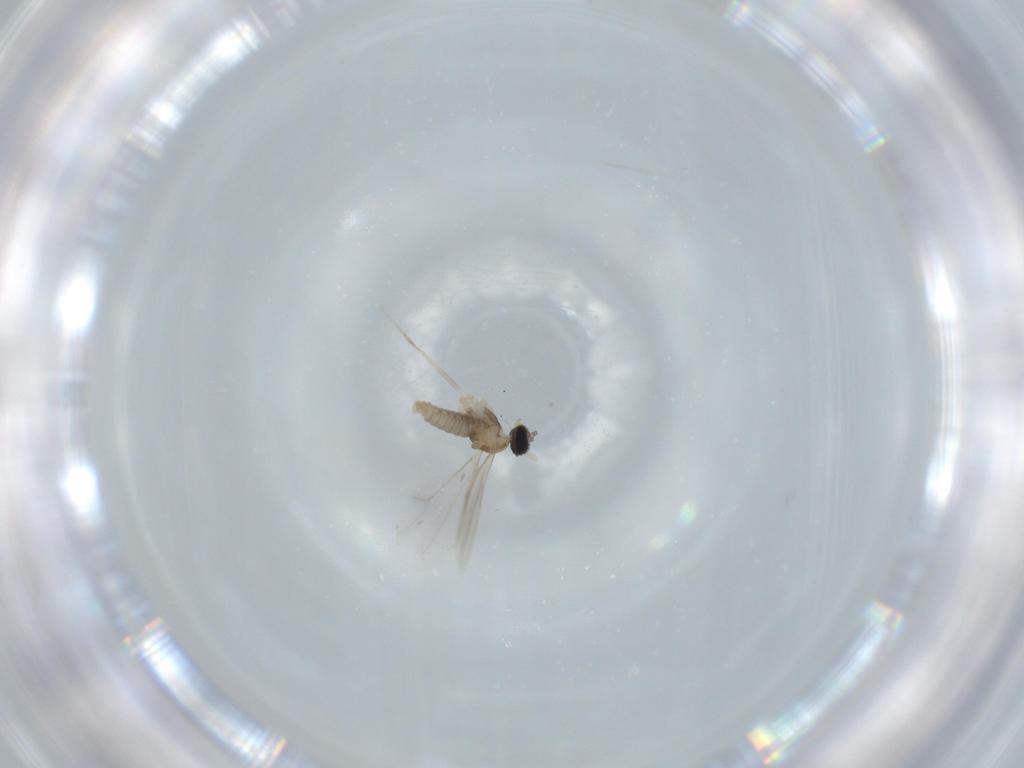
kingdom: Animalia
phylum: Arthropoda
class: Insecta
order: Diptera
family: Cecidomyiidae
